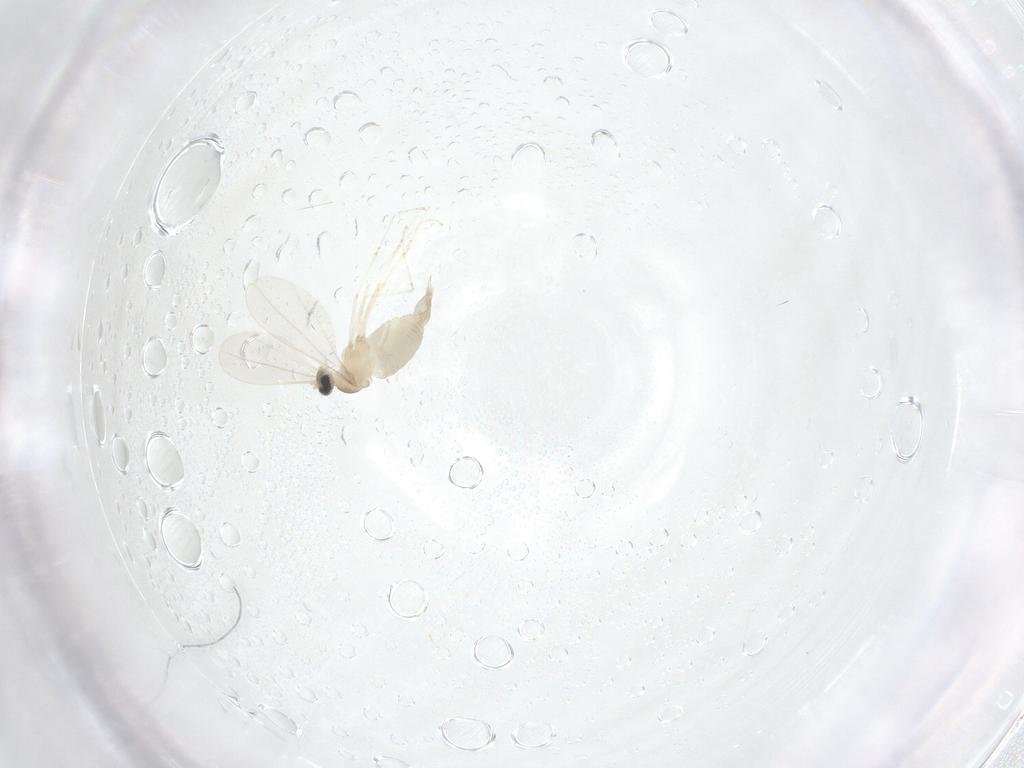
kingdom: Animalia
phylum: Arthropoda
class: Insecta
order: Diptera
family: Cecidomyiidae
